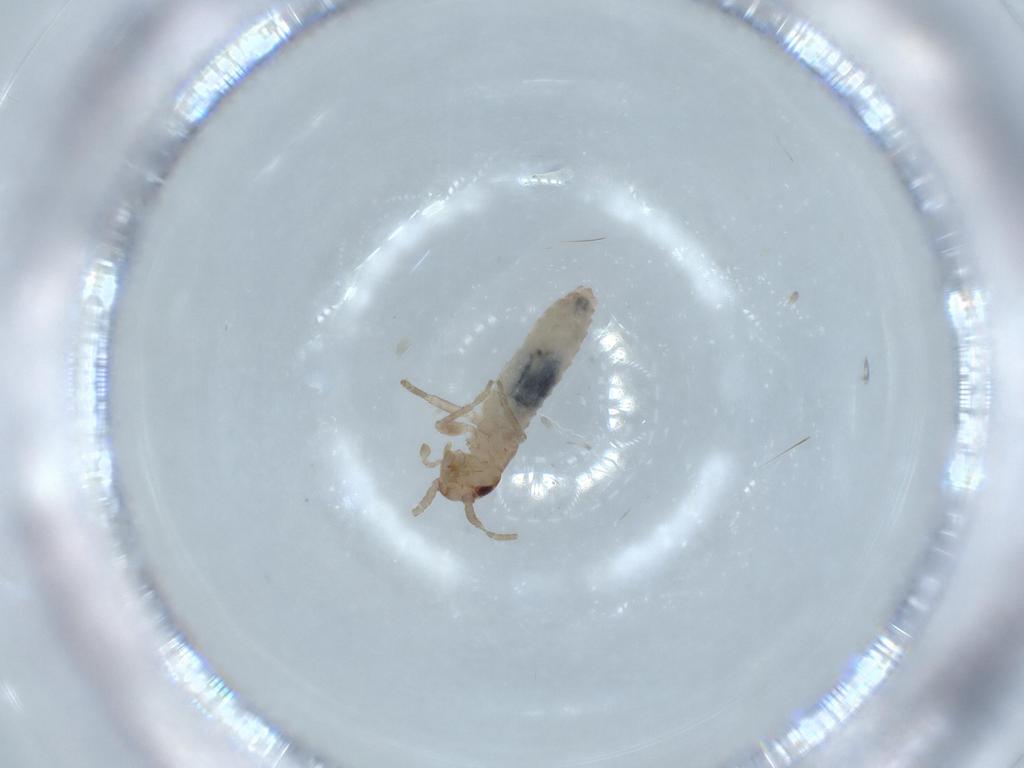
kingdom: Animalia
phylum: Arthropoda
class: Insecta
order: Orthoptera
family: Mogoplistidae
